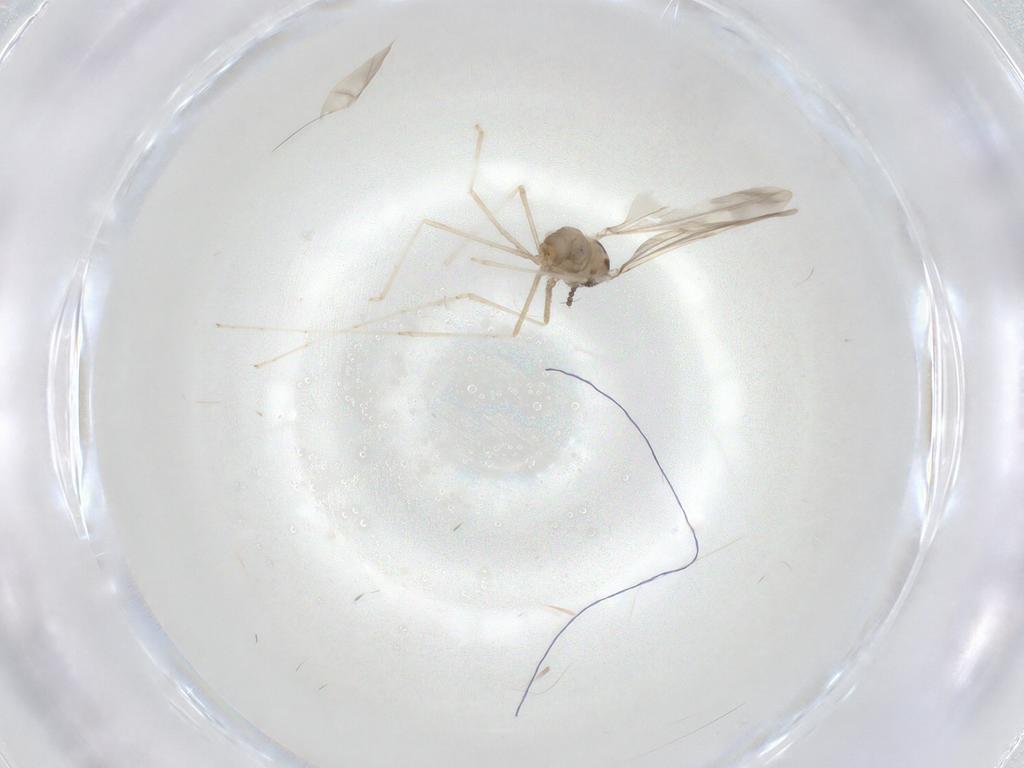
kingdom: Animalia
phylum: Arthropoda
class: Insecta
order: Diptera
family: Cecidomyiidae
